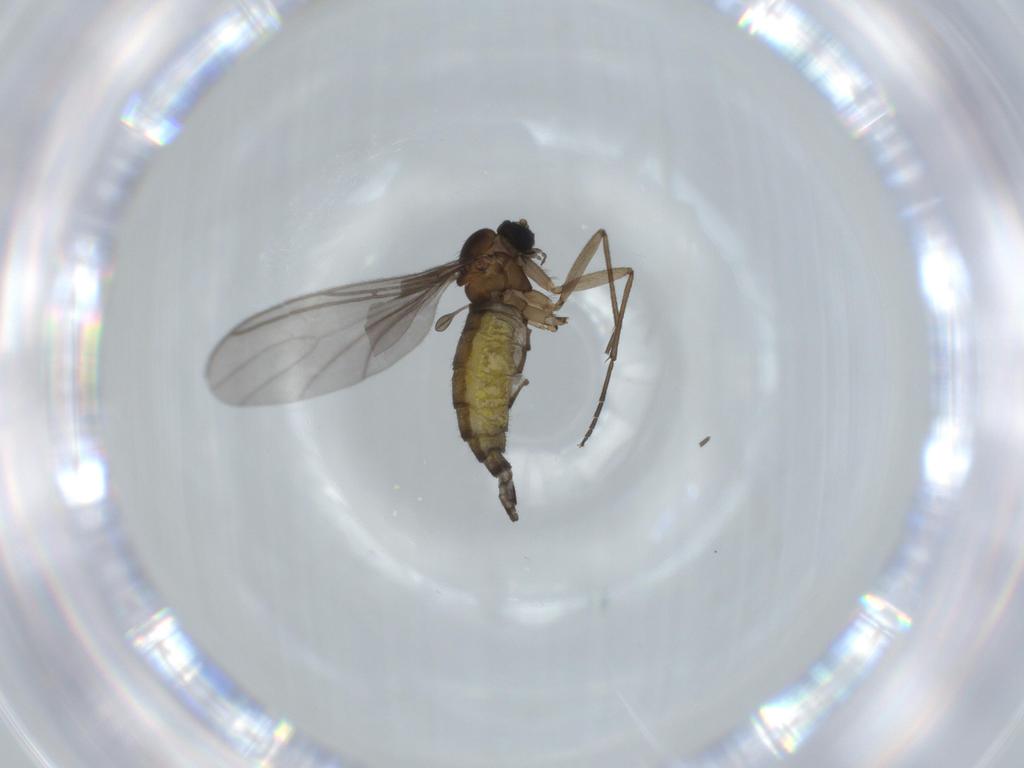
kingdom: Animalia
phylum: Arthropoda
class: Insecta
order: Diptera
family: Sciaridae
